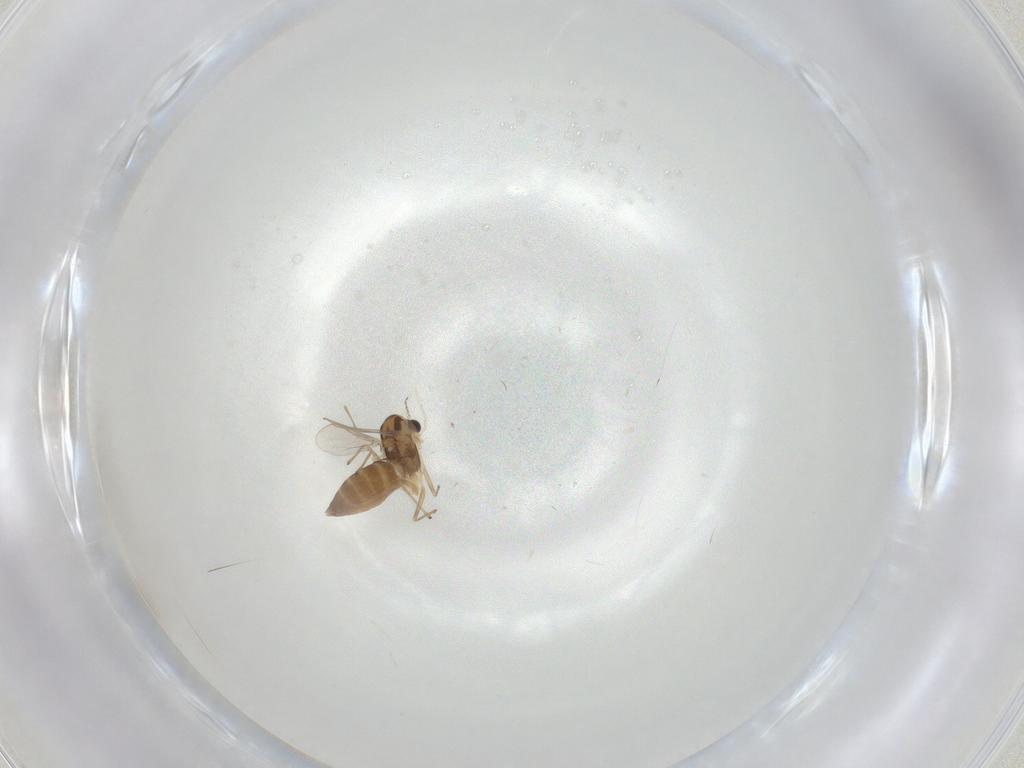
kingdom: Animalia
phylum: Arthropoda
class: Insecta
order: Diptera
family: Chironomidae
